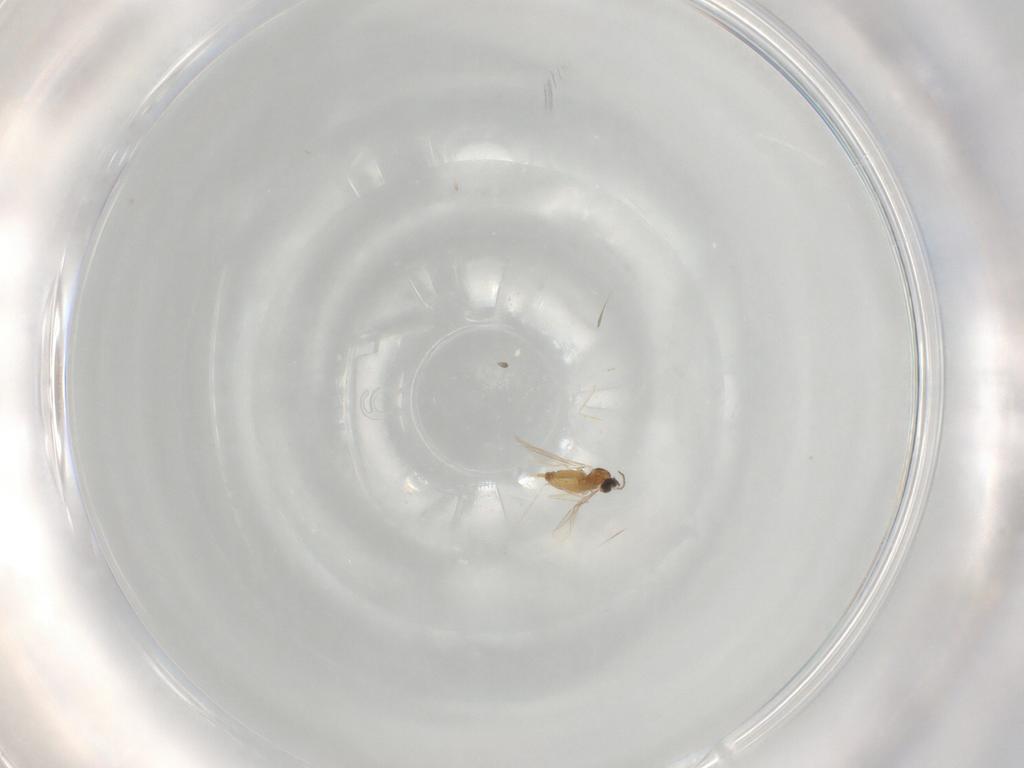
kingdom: Animalia
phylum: Arthropoda
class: Insecta
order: Diptera
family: Cecidomyiidae
